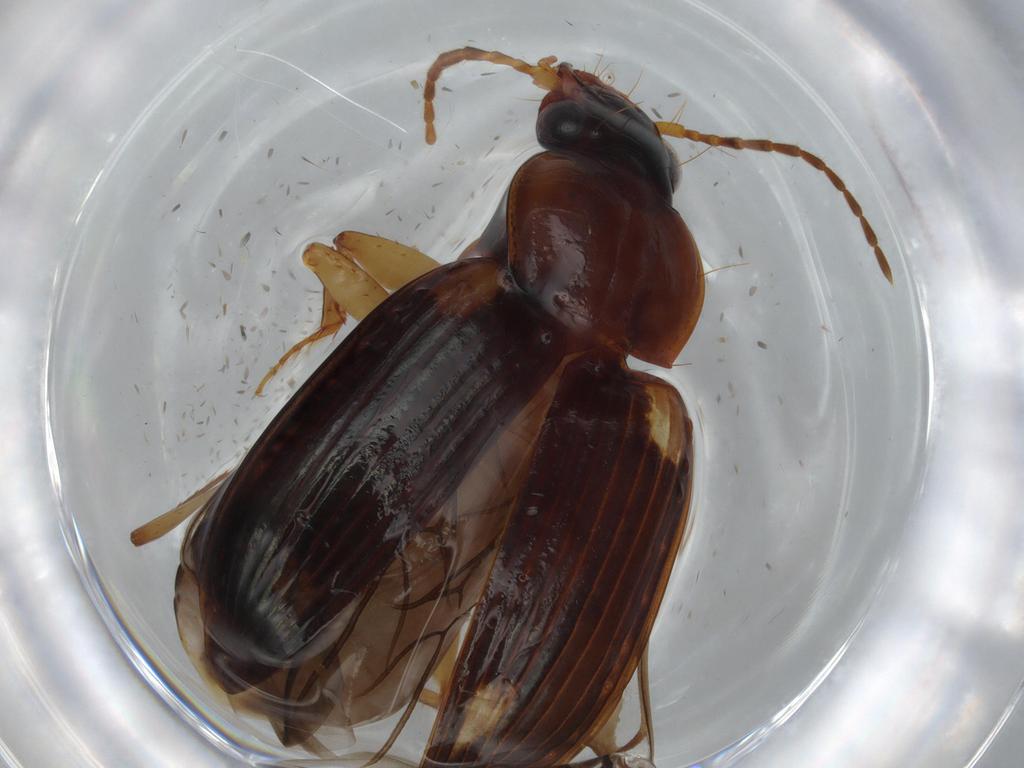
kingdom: Animalia
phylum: Arthropoda
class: Insecta
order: Coleoptera
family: Carabidae
